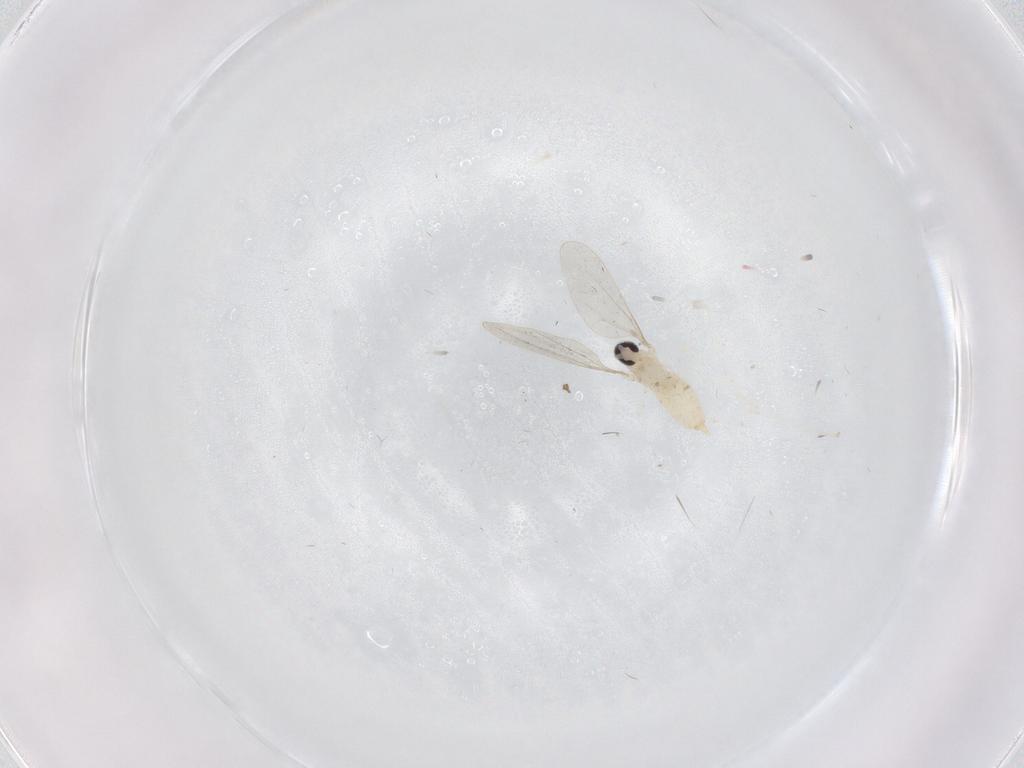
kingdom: Animalia
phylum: Arthropoda
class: Insecta
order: Diptera
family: Cecidomyiidae
